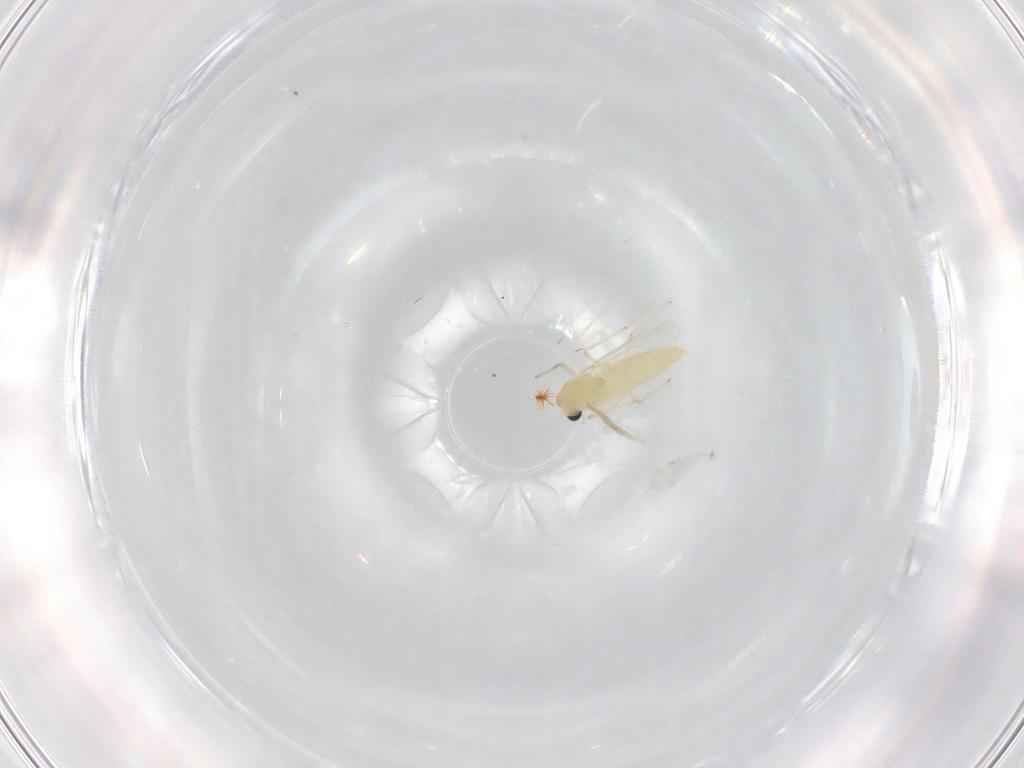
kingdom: Animalia
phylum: Arthropoda
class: Insecta
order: Diptera
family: Chironomidae
